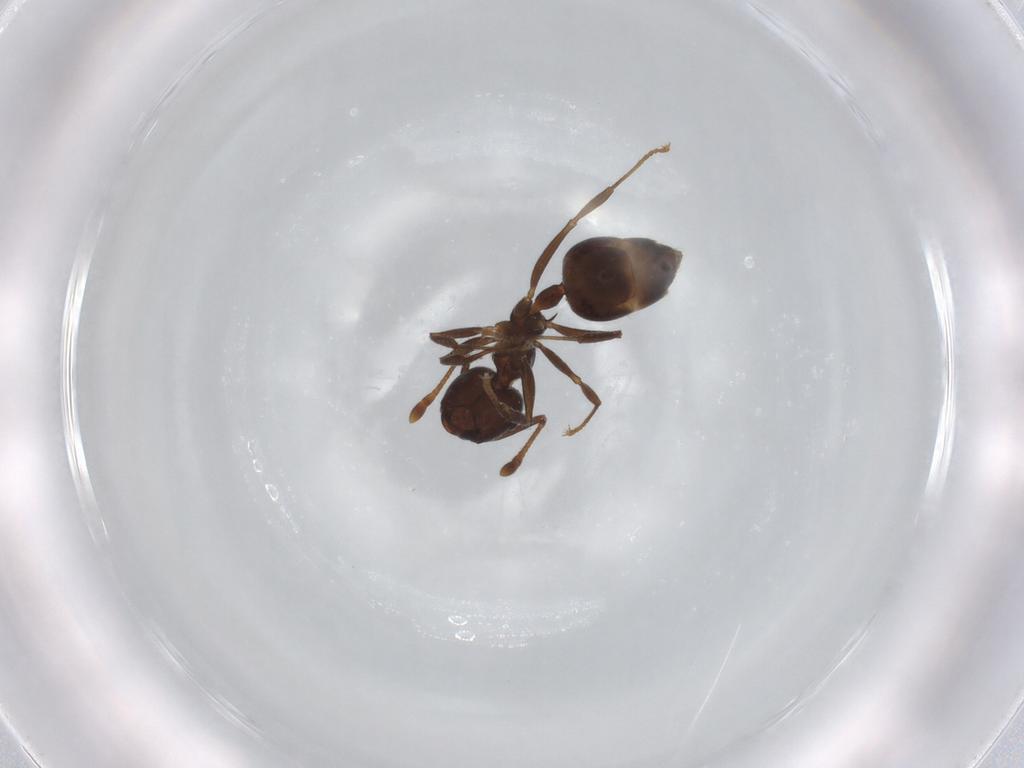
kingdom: Animalia
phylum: Arthropoda
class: Insecta
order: Hymenoptera
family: Formicidae
